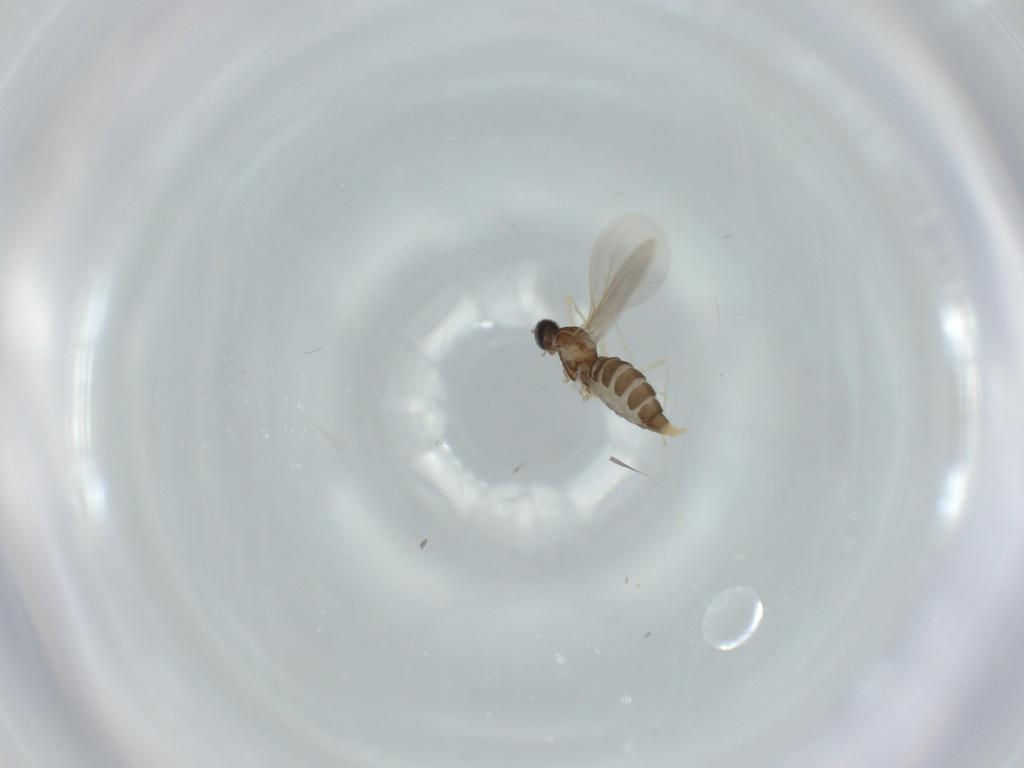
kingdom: Animalia
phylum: Arthropoda
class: Insecta
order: Diptera
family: Cecidomyiidae
